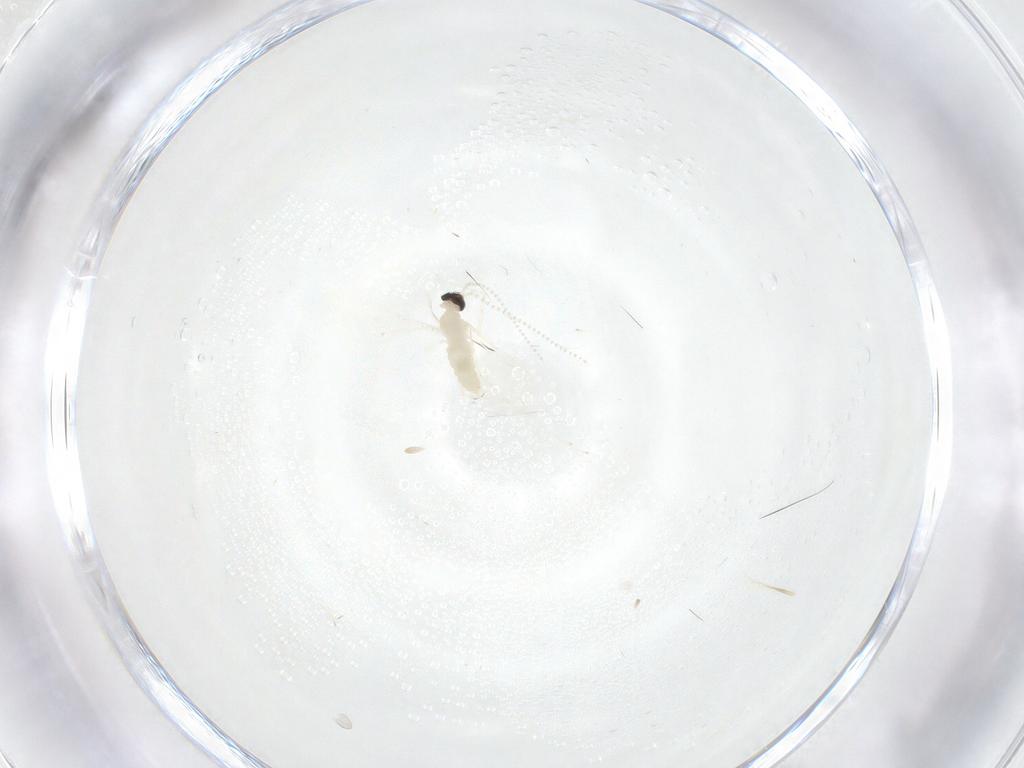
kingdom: Animalia
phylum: Arthropoda
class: Insecta
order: Diptera
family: Cecidomyiidae
